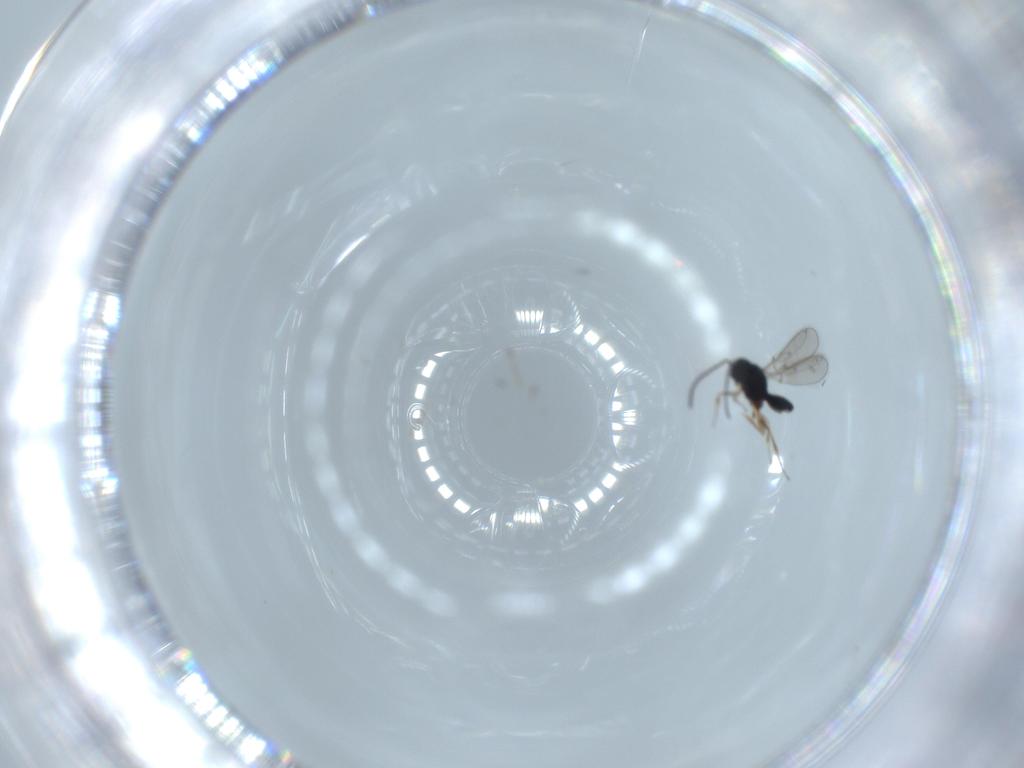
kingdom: Animalia
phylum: Arthropoda
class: Insecta
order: Hymenoptera
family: Scelionidae
